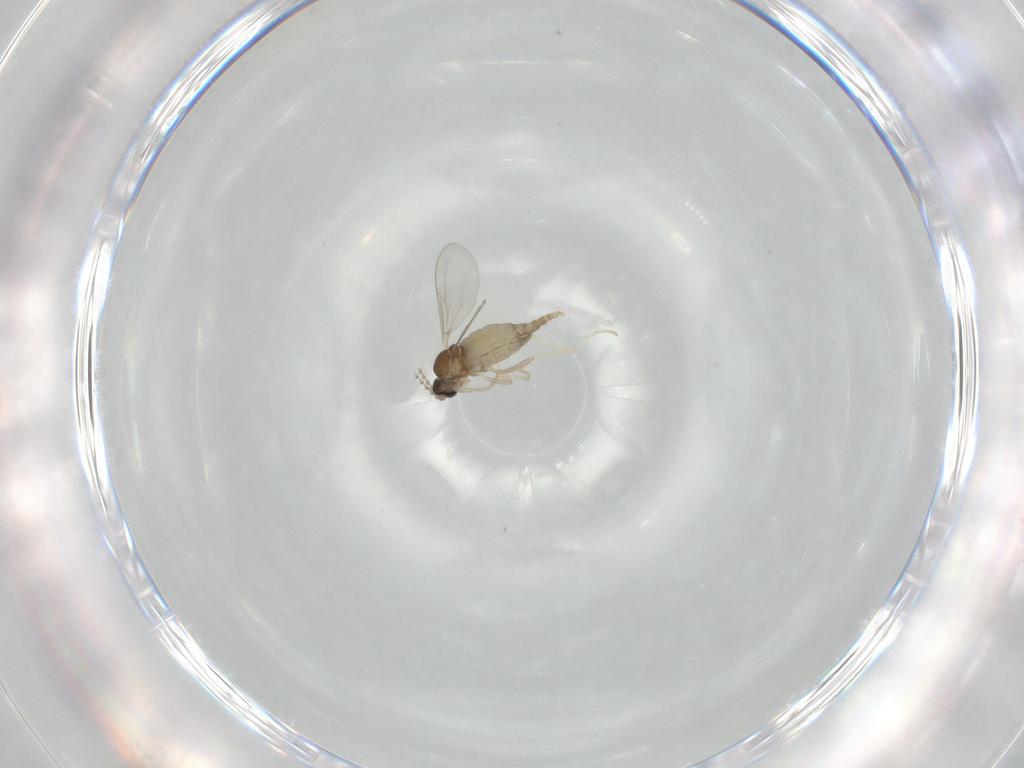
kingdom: Animalia
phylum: Arthropoda
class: Insecta
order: Diptera
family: Cecidomyiidae
